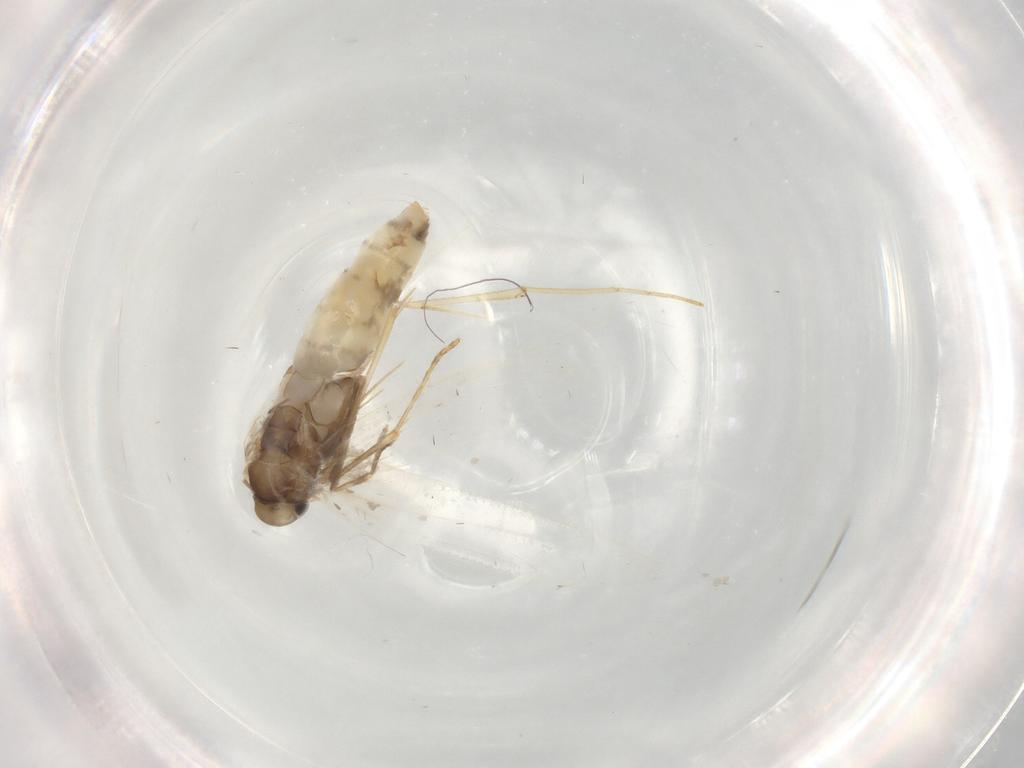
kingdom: Animalia
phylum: Arthropoda
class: Insecta
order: Lepidoptera
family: Gracillariidae
